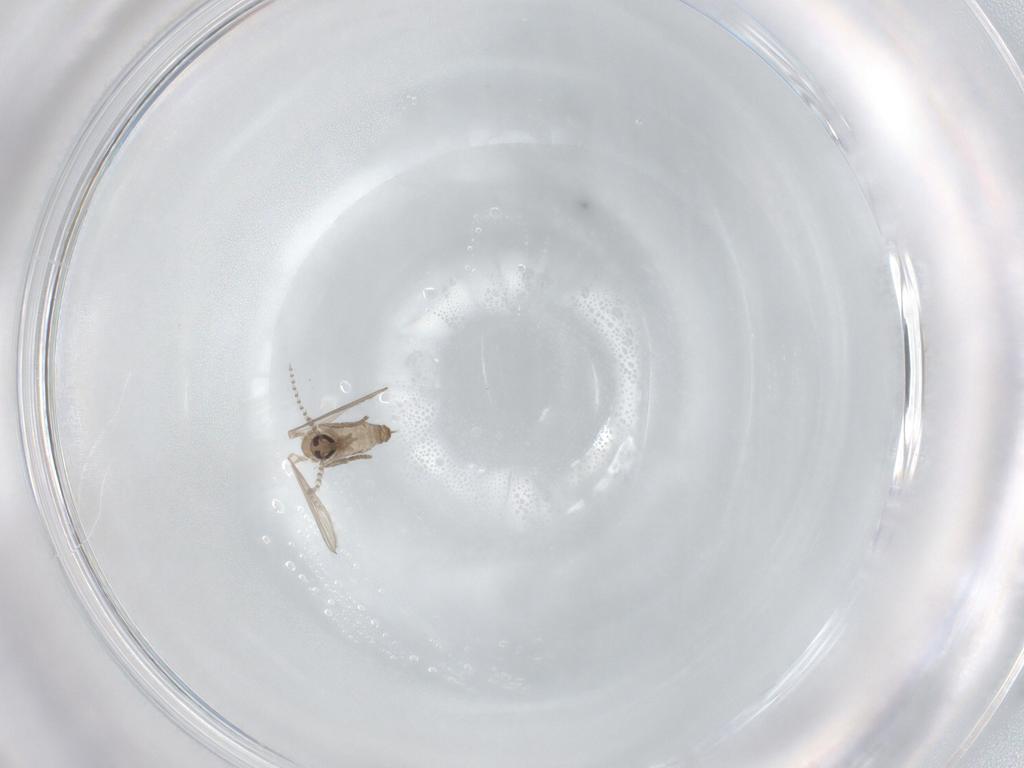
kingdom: Animalia
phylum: Arthropoda
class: Insecta
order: Diptera
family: Psychodidae
